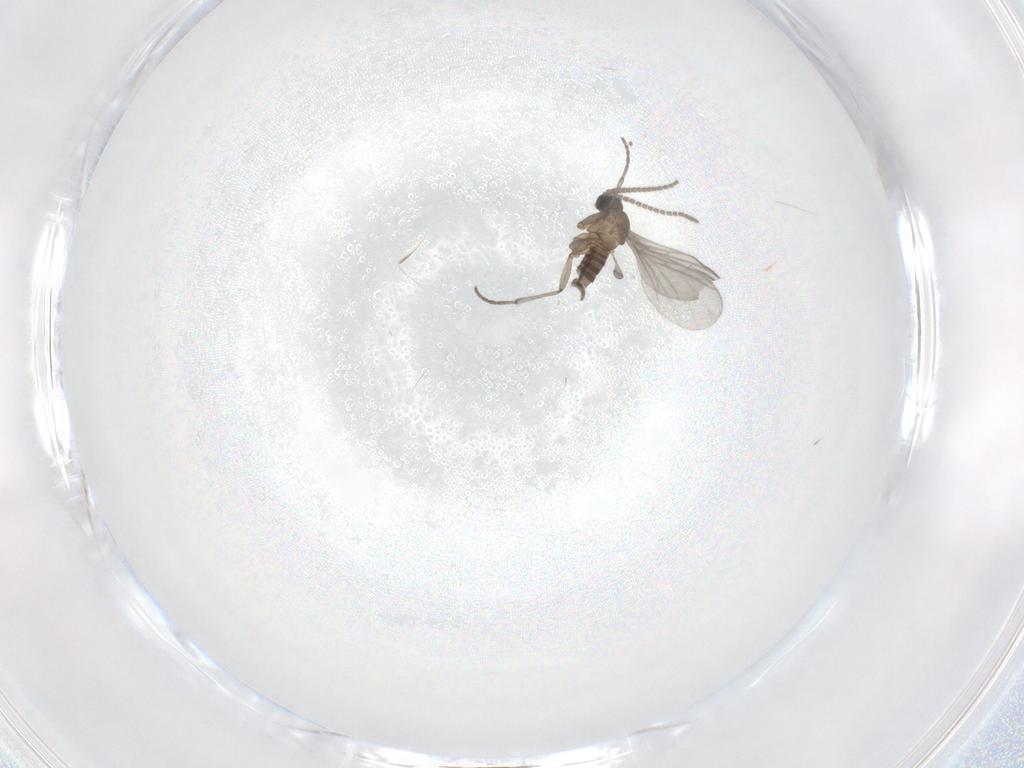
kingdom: Animalia
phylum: Arthropoda
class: Insecta
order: Diptera
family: Sciaridae
